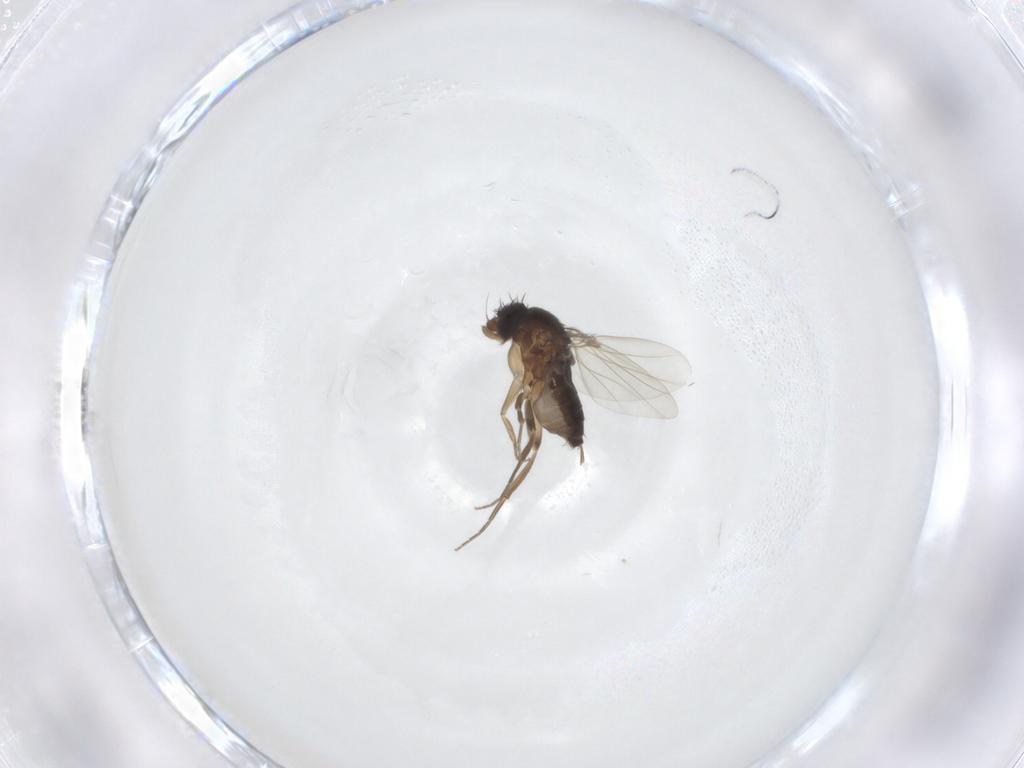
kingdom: Animalia
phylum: Arthropoda
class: Insecta
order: Diptera
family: Phoridae
